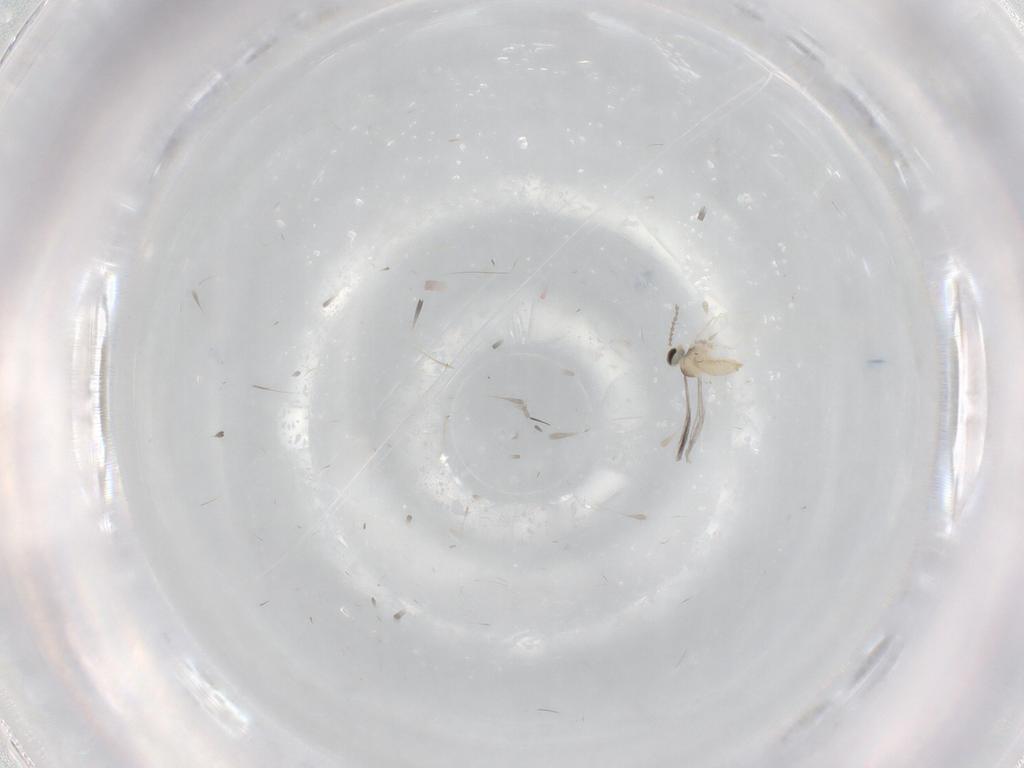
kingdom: Animalia
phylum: Arthropoda
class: Insecta
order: Diptera
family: Cecidomyiidae
